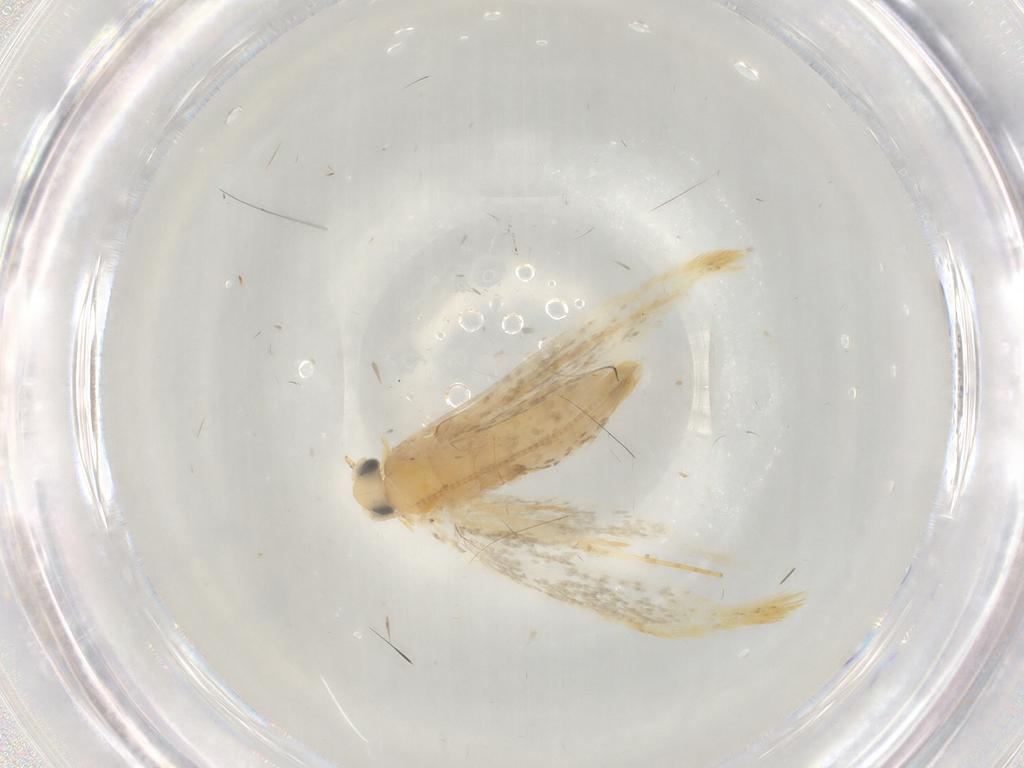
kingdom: Animalia
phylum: Arthropoda
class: Insecta
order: Lepidoptera
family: Tineidae
